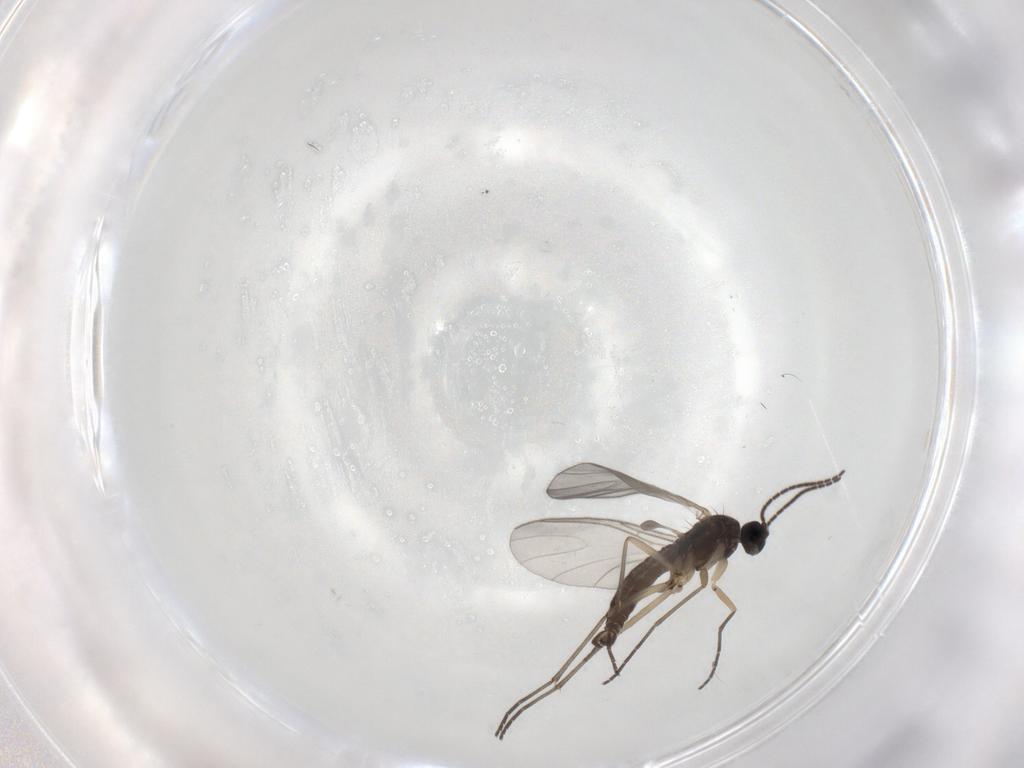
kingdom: Animalia
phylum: Arthropoda
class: Insecta
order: Diptera
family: Sciaridae
